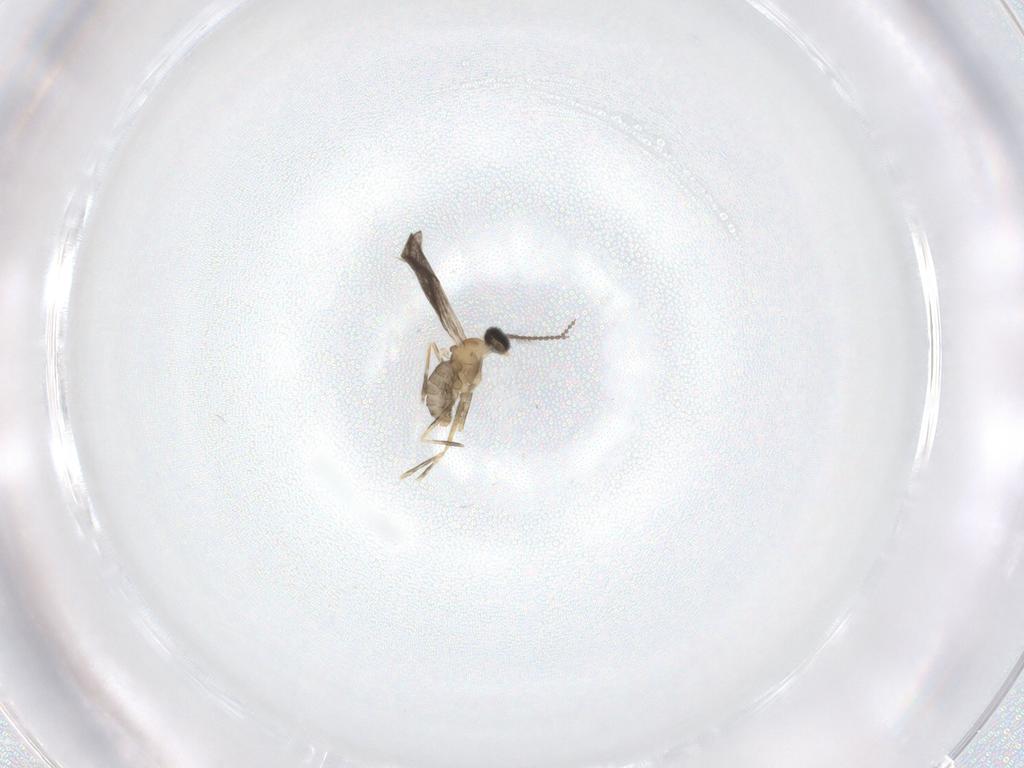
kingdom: Animalia
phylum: Arthropoda
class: Insecta
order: Diptera
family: Cecidomyiidae
